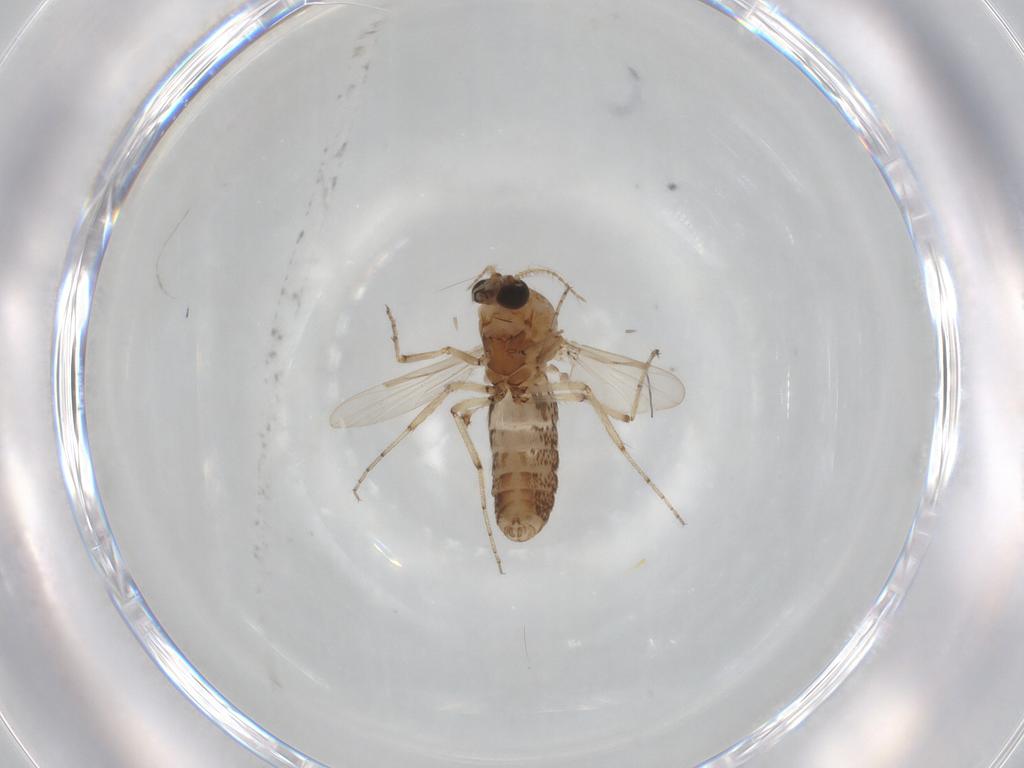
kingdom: Animalia
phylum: Arthropoda
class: Insecta
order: Diptera
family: Ceratopogonidae
